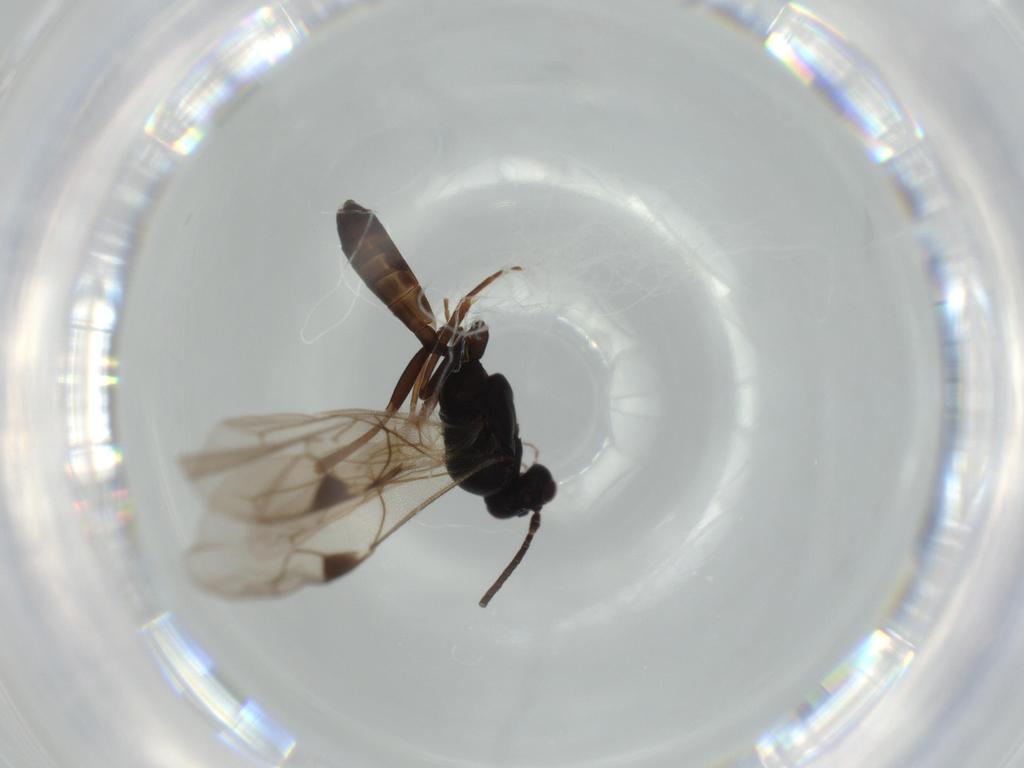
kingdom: Animalia
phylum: Arthropoda
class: Insecta
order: Hymenoptera
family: Ichneumonidae
